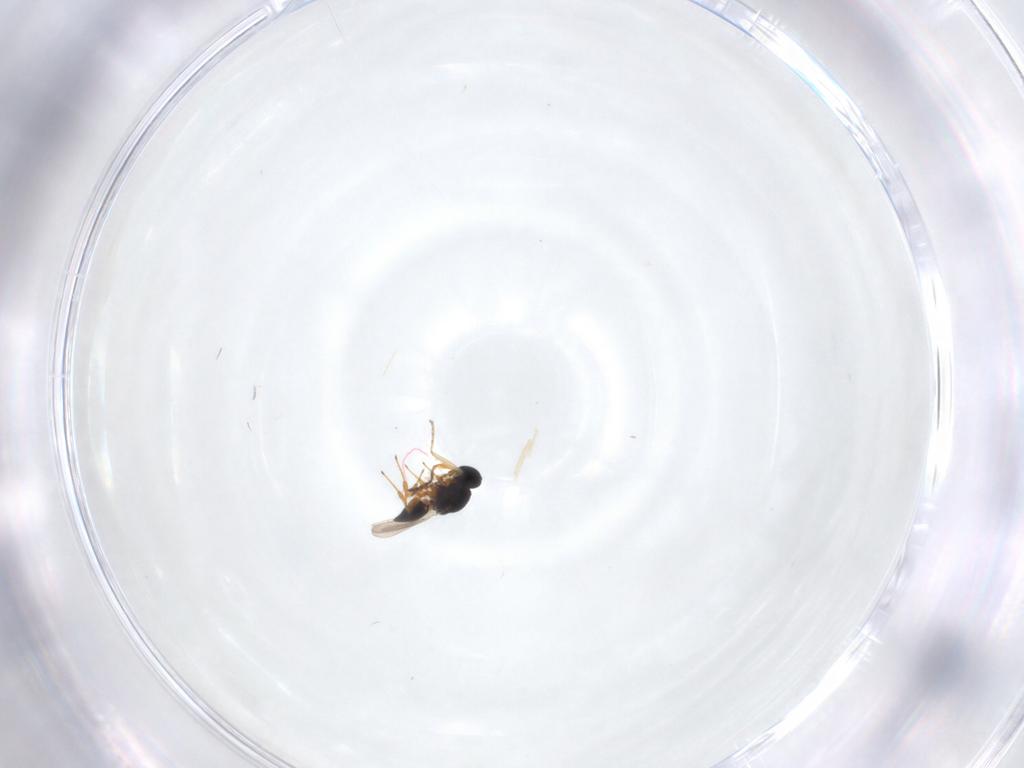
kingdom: Animalia
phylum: Arthropoda
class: Insecta
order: Hymenoptera
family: Platygastridae
